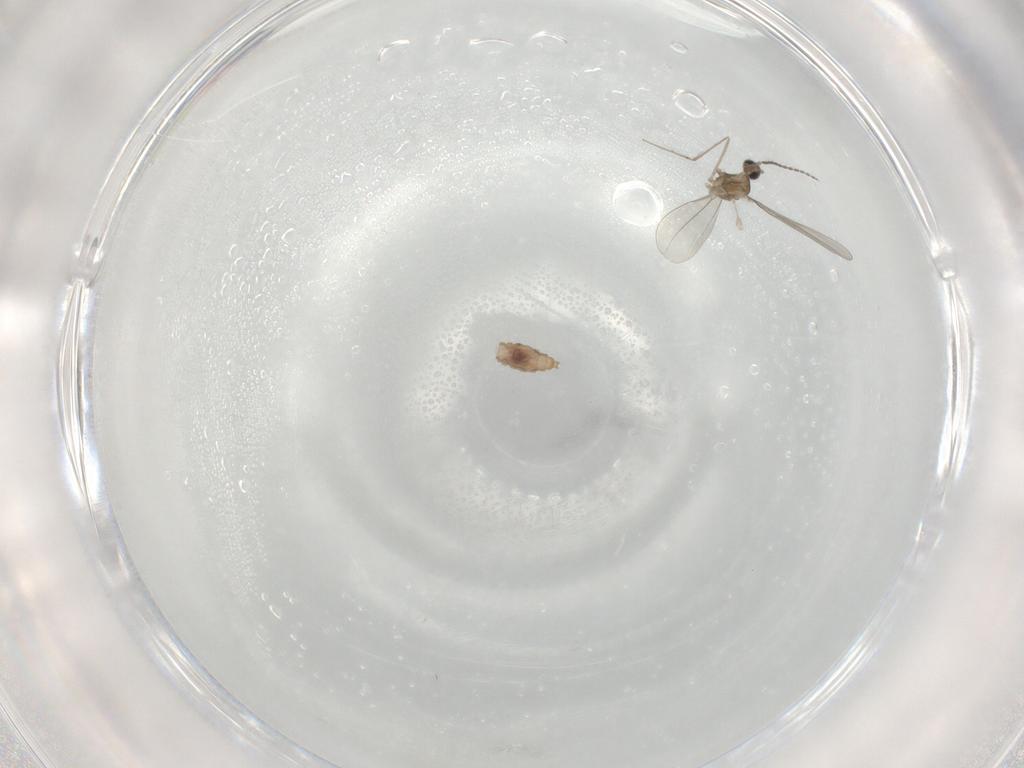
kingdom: Animalia
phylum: Arthropoda
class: Insecta
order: Diptera
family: Cecidomyiidae
